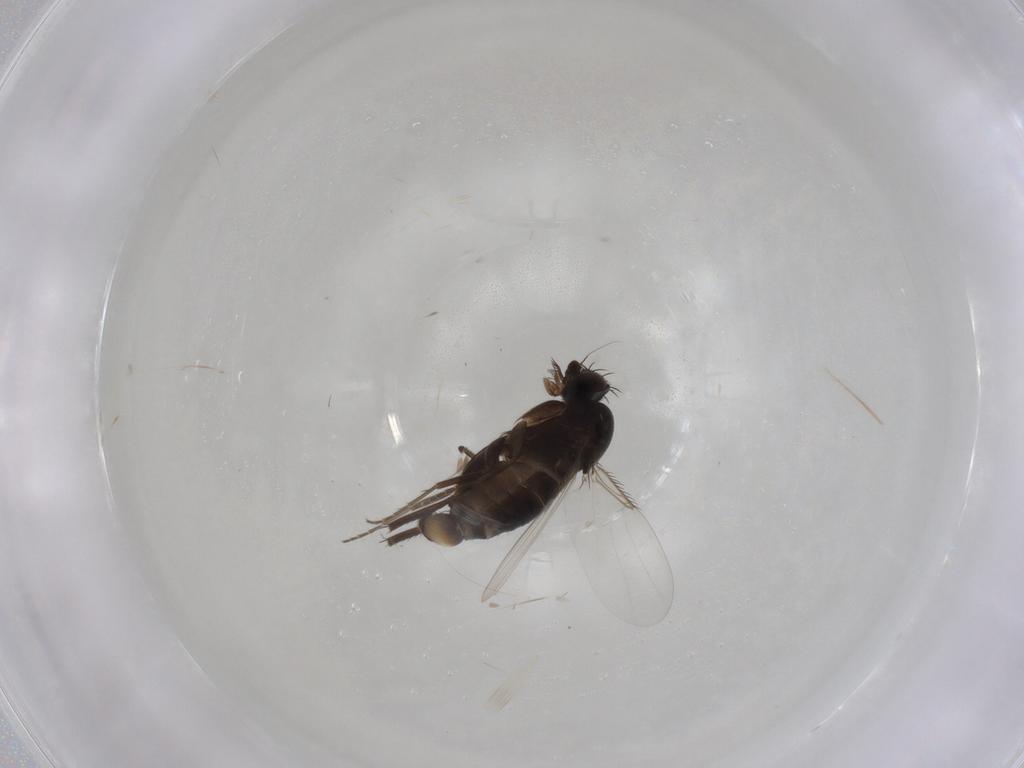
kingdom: Animalia
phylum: Arthropoda
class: Insecta
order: Diptera
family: Phoridae
